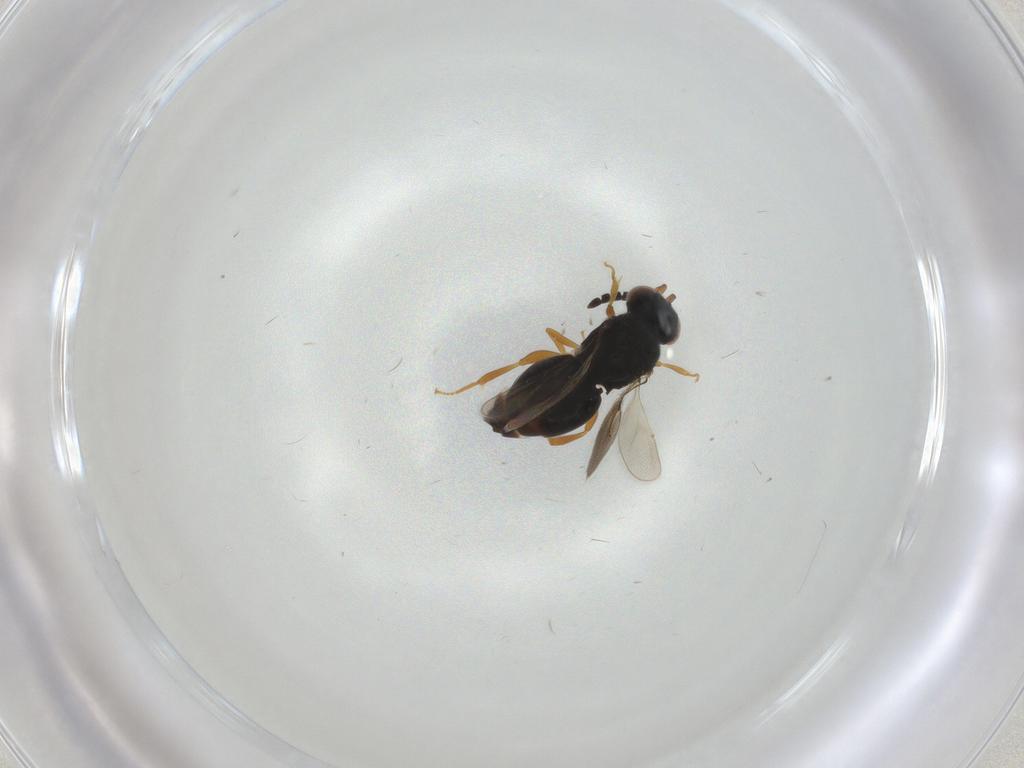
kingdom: Animalia
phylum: Arthropoda
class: Insecta
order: Hymenoptera
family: Ceraphronidae
